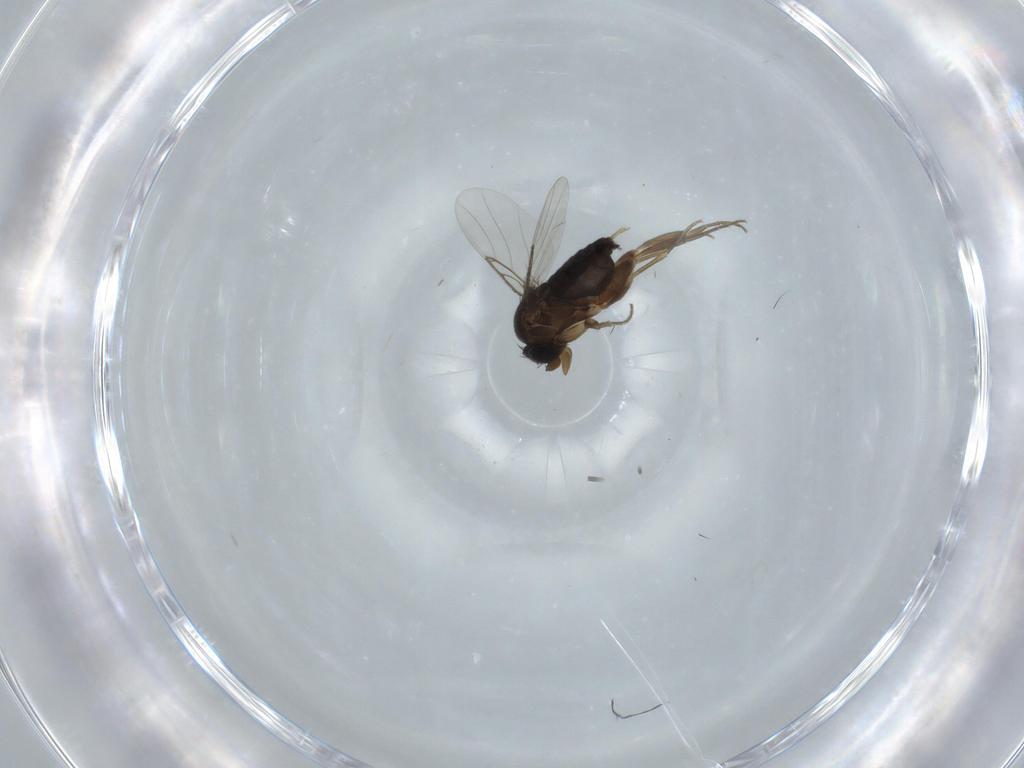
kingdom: Animalia
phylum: Arthropoda
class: Insecta
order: Diptera
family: Phoridae
